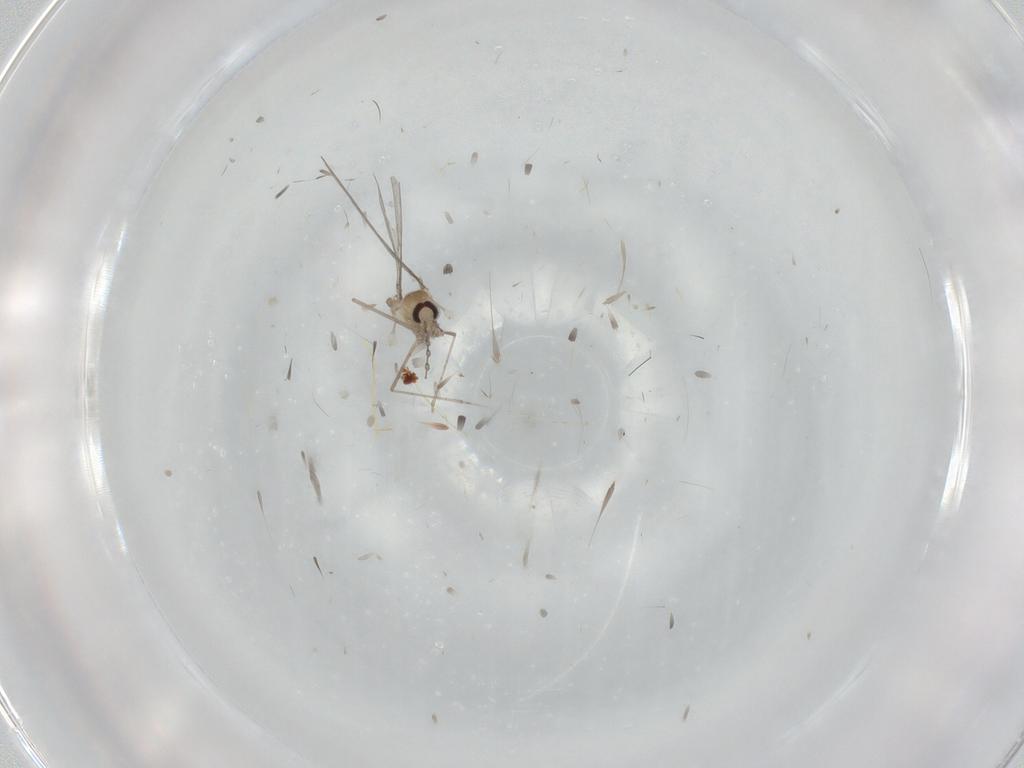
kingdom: Animalia
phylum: Arthropoda
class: Insecta
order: Diptera
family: Cecidomyiidae
